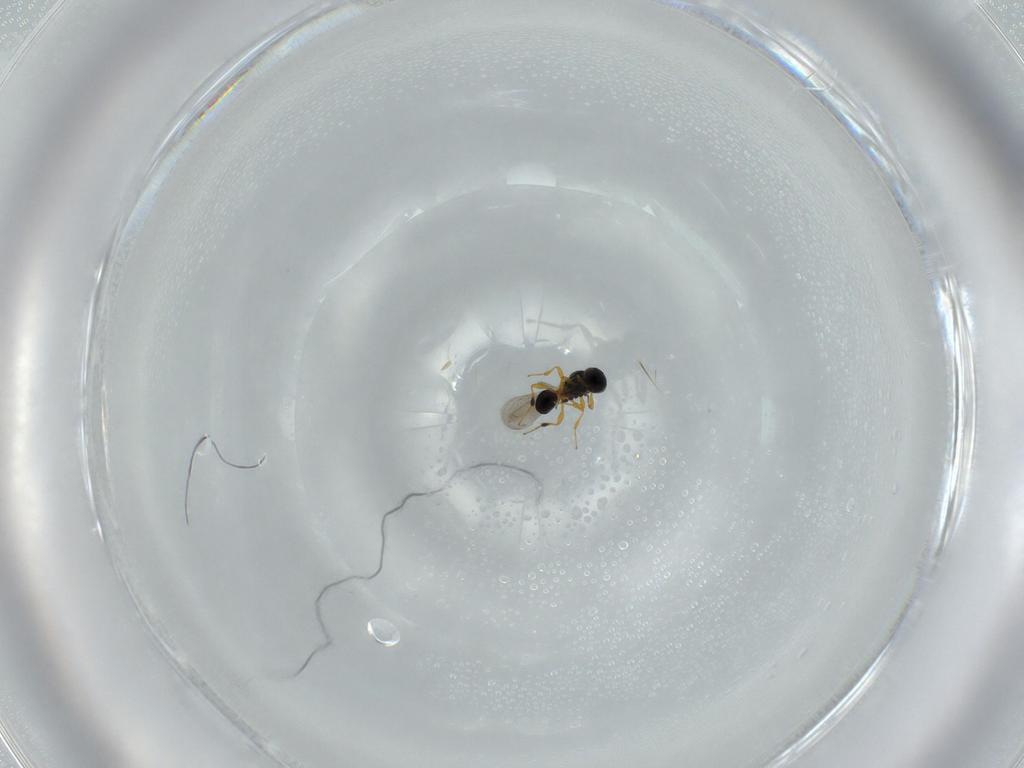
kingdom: Animalia
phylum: Arthropoda
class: Insecta
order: Hymenoptera
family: Platygastridae
